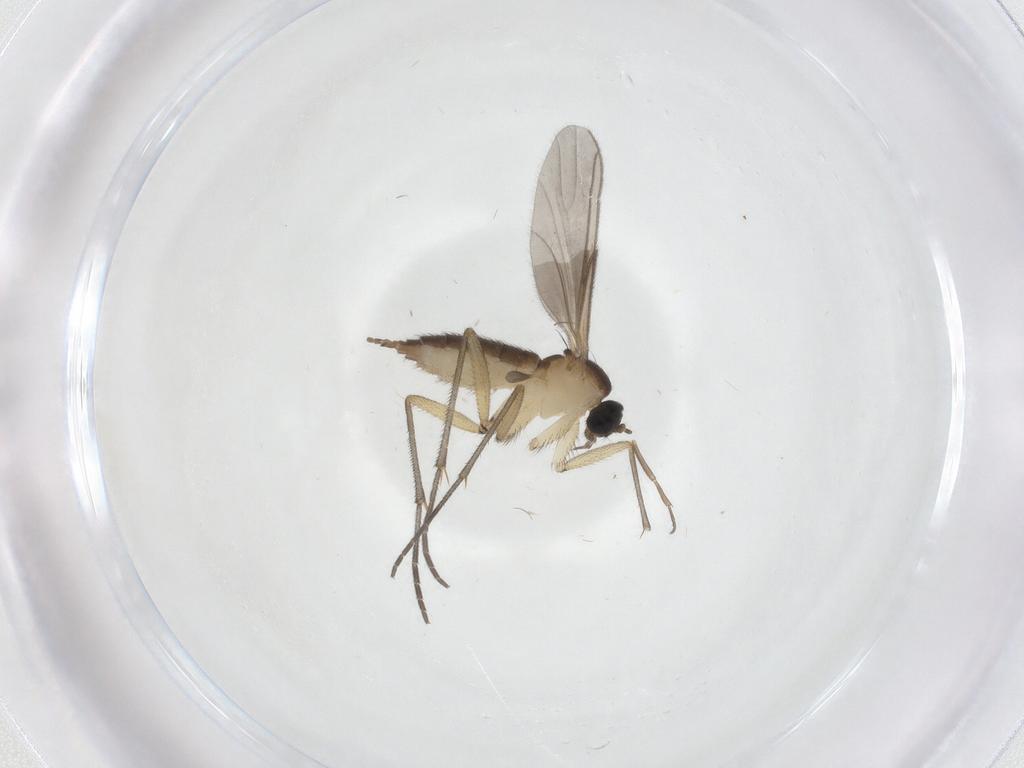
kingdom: Animalia
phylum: Arthropoda
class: Insecta
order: Diptera
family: Sciaridae
